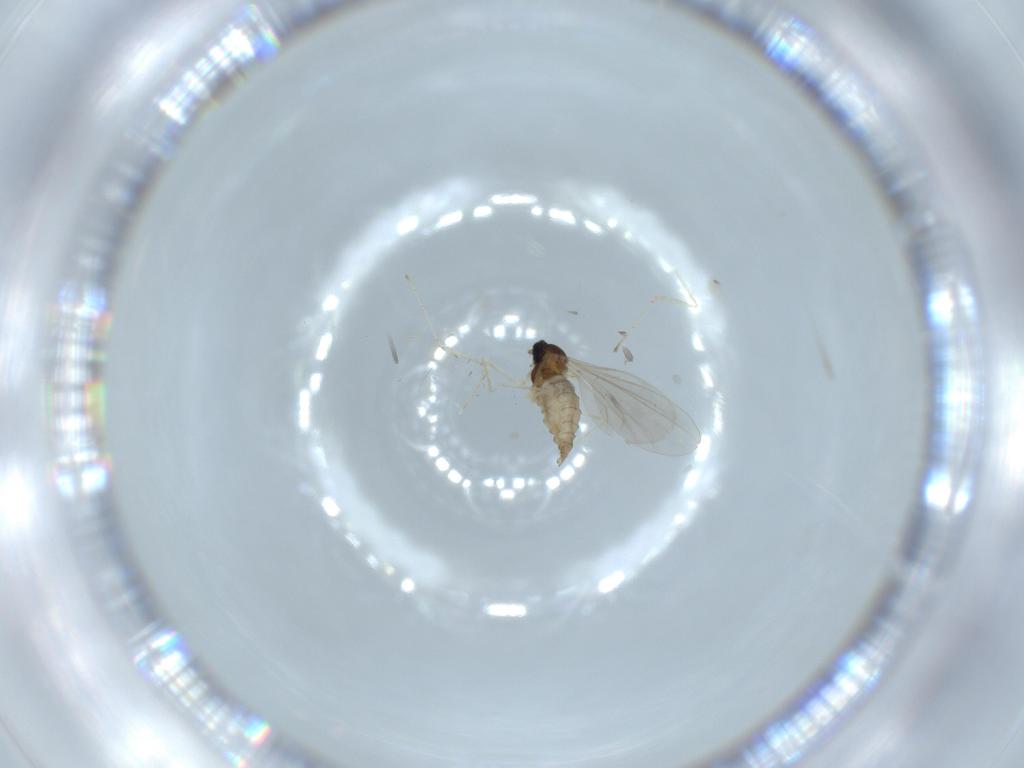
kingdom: Animalia
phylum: Arthropoda
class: Insecta
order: Diptera
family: Cecidomyiidae
